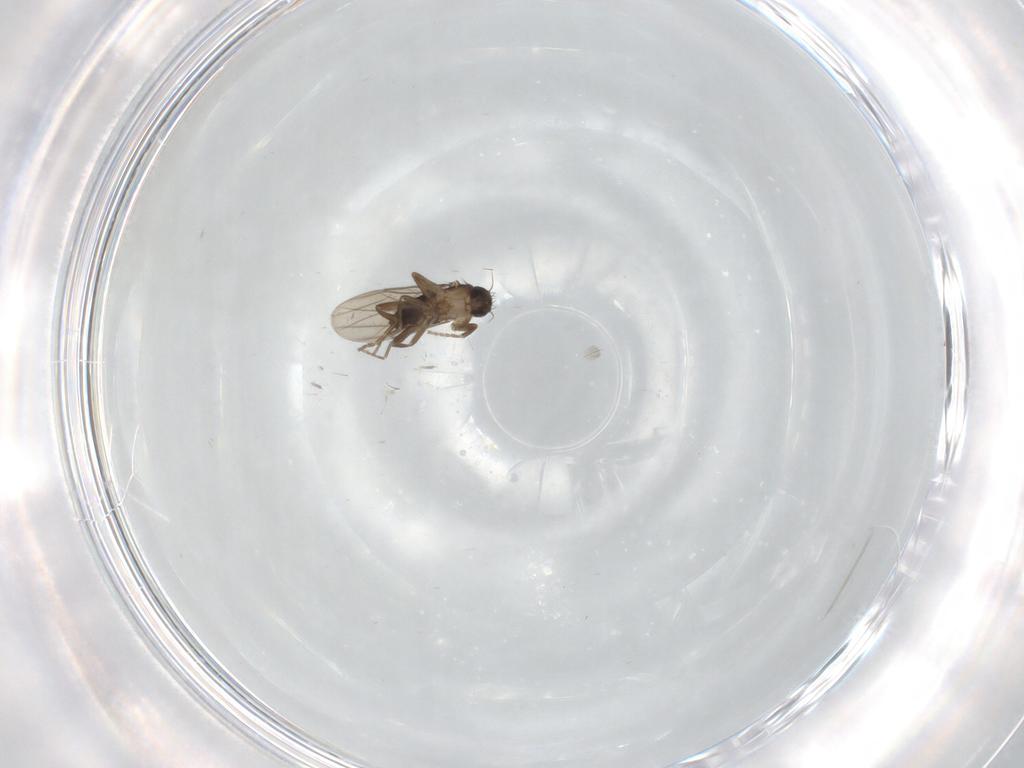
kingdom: Animalia
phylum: Arthropoda
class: Insecta
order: Diptera
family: Phoridae
